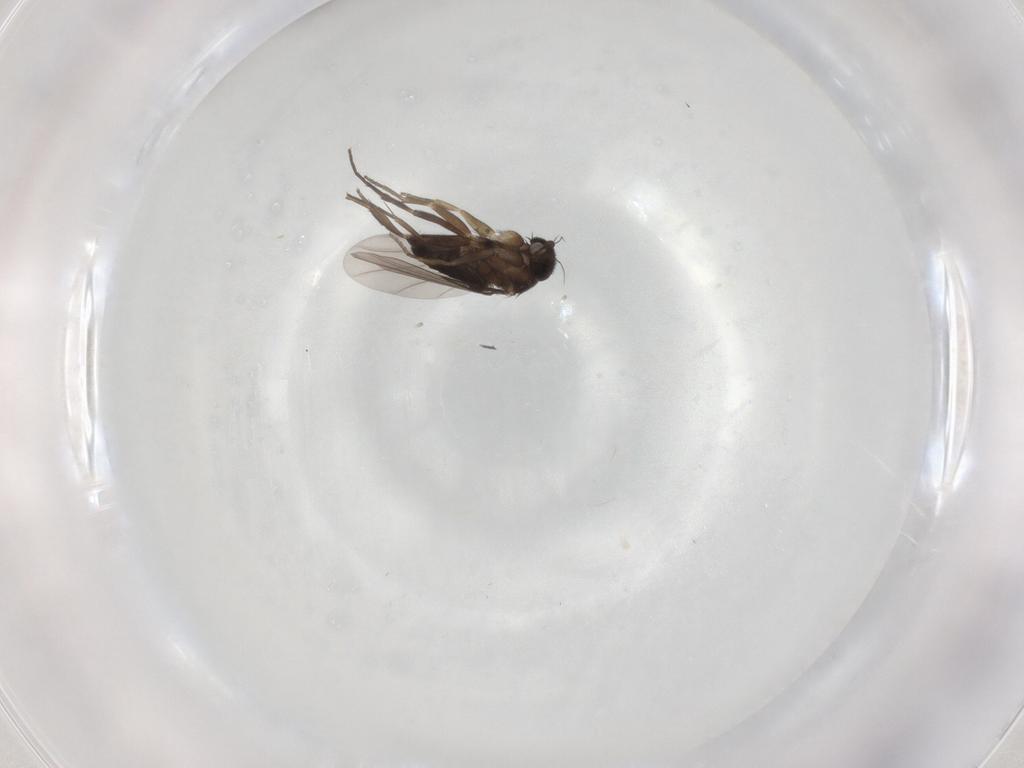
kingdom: Animalia
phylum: Arthropoda
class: Insecta
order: Diptera
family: Phoridae
